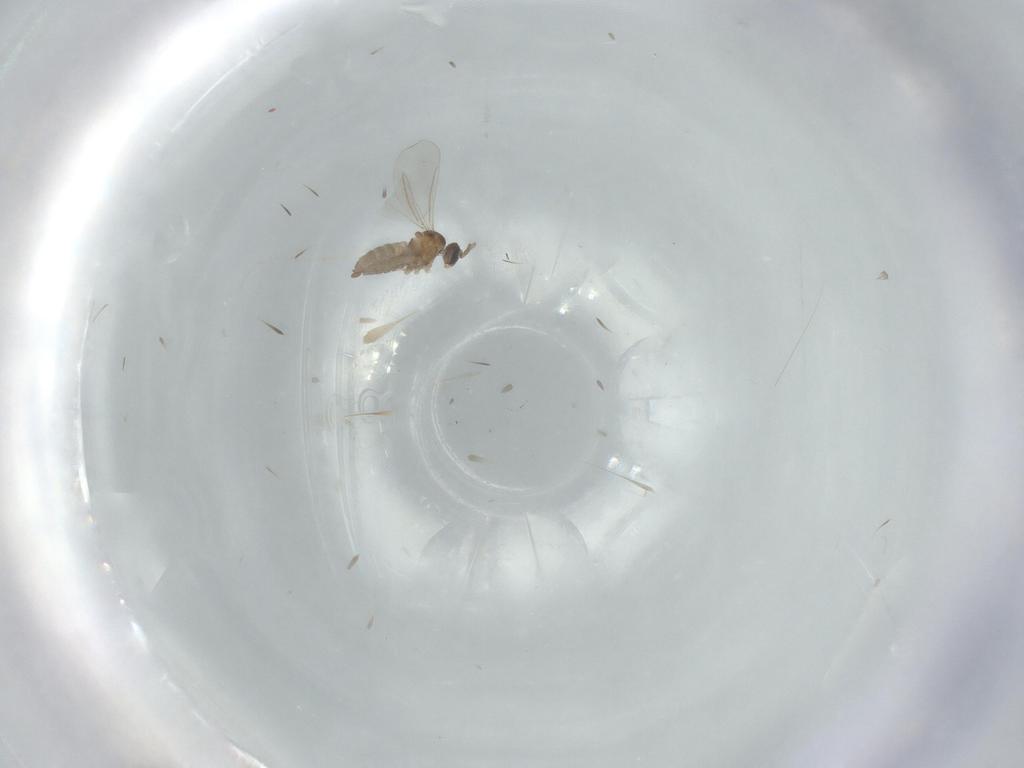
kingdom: Animalia
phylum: Arthropoda
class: Insecta
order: Diptera
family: Cecidomyiidae
